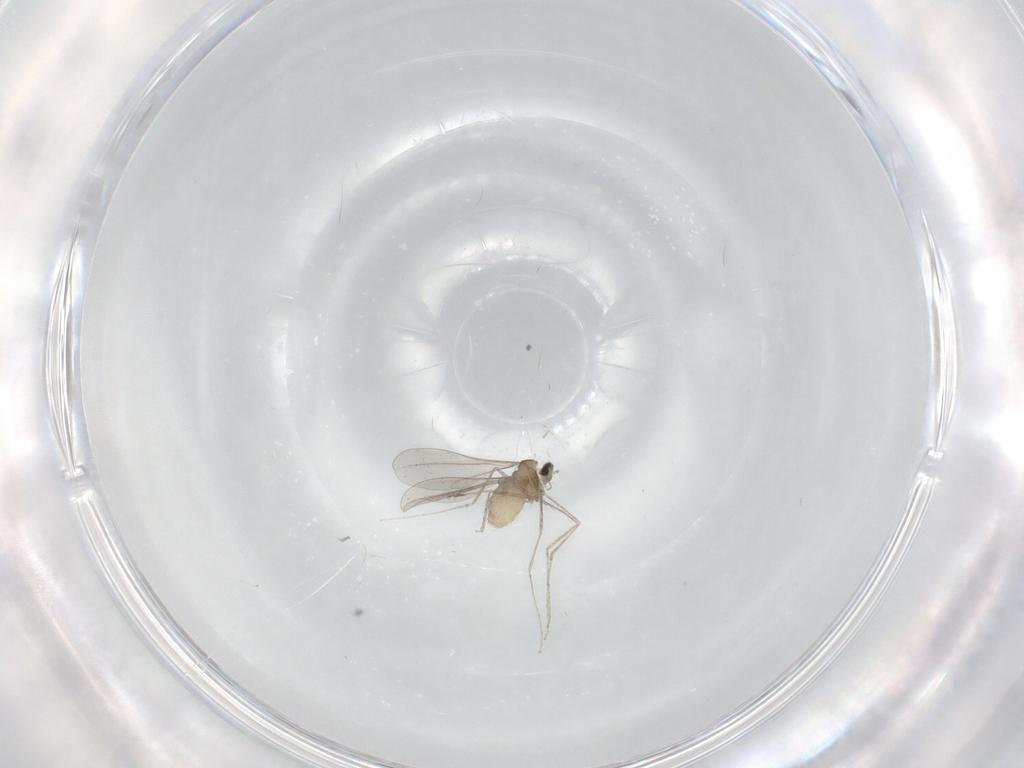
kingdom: Animalia
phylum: Arthropoda
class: Insecta
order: Diptera
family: Cecidomyiidae
